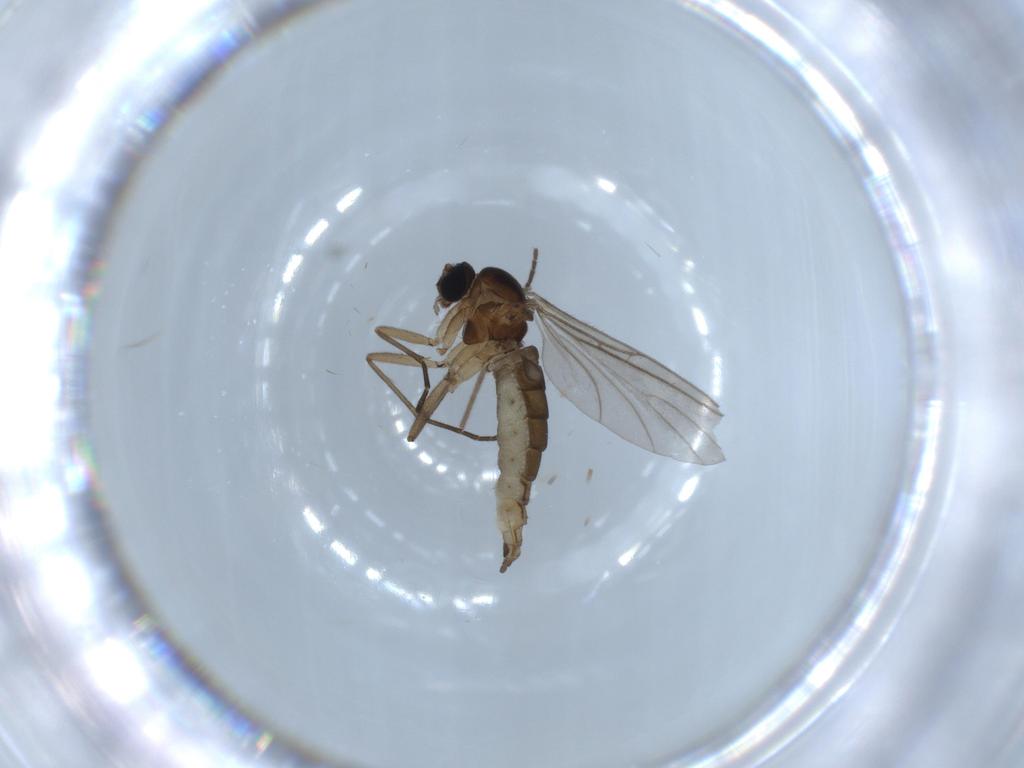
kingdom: Animalia
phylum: Arthropoda
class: Insecta
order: Diptera
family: Sciaridae
